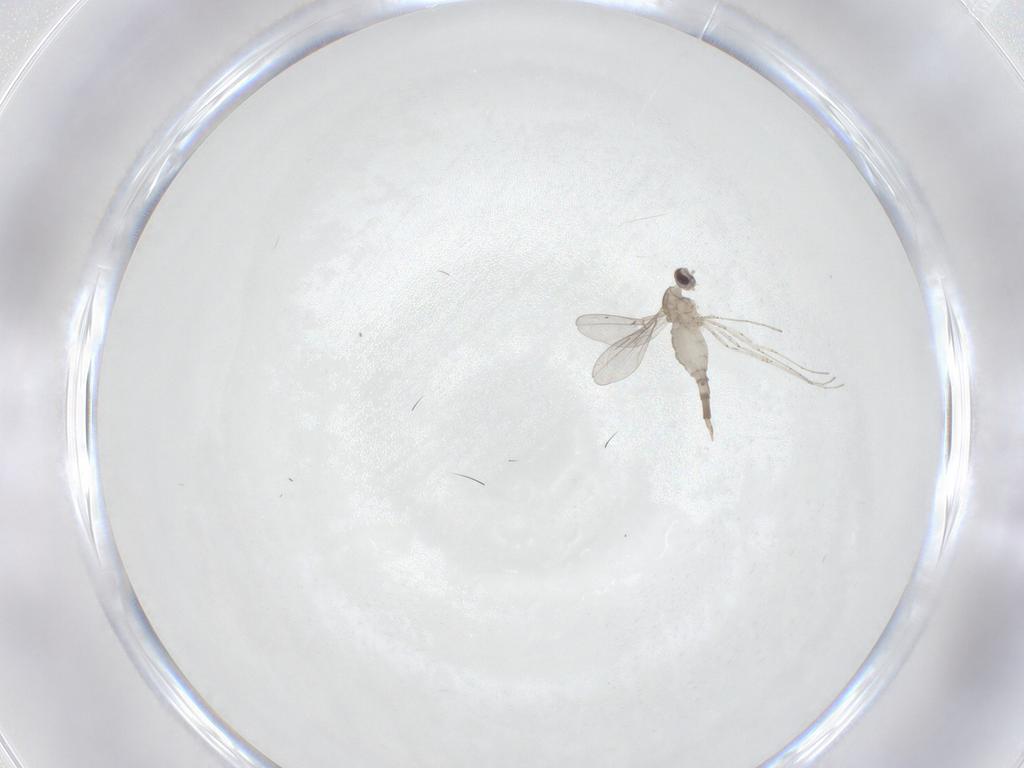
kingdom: Animalia
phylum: Arthropoda
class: Insecta
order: Diptera
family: Cecidomyiidae
